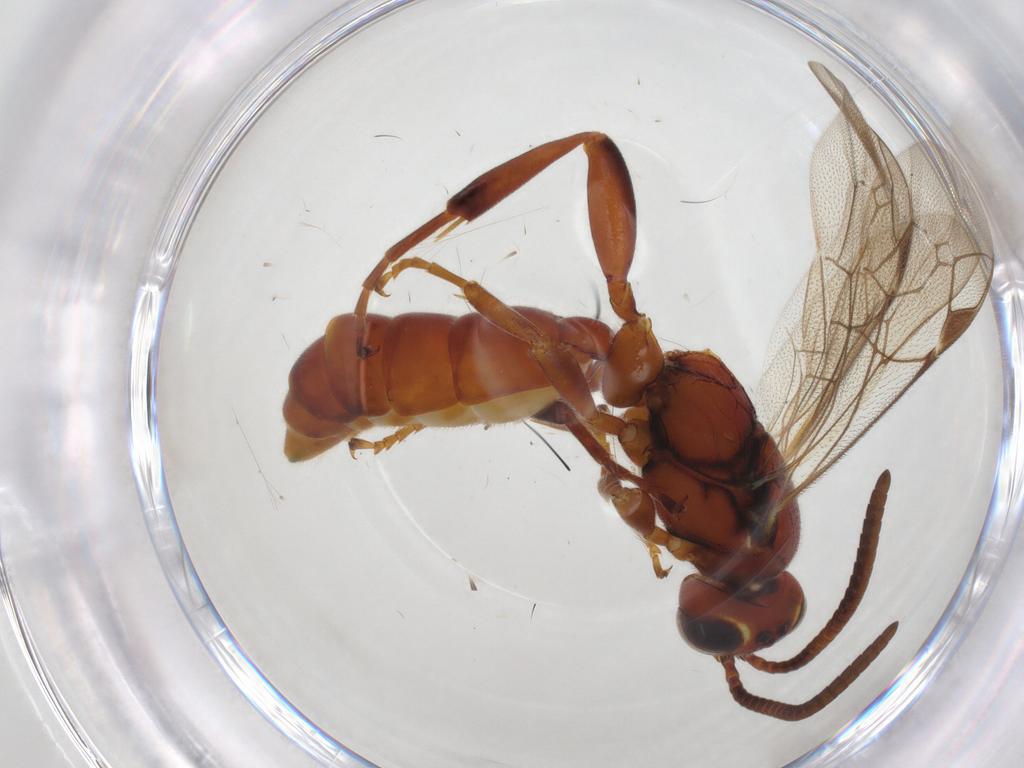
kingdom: Animalia
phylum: Arthropoda
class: Insecta
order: Hymenoptera
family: Ichneumonidae
